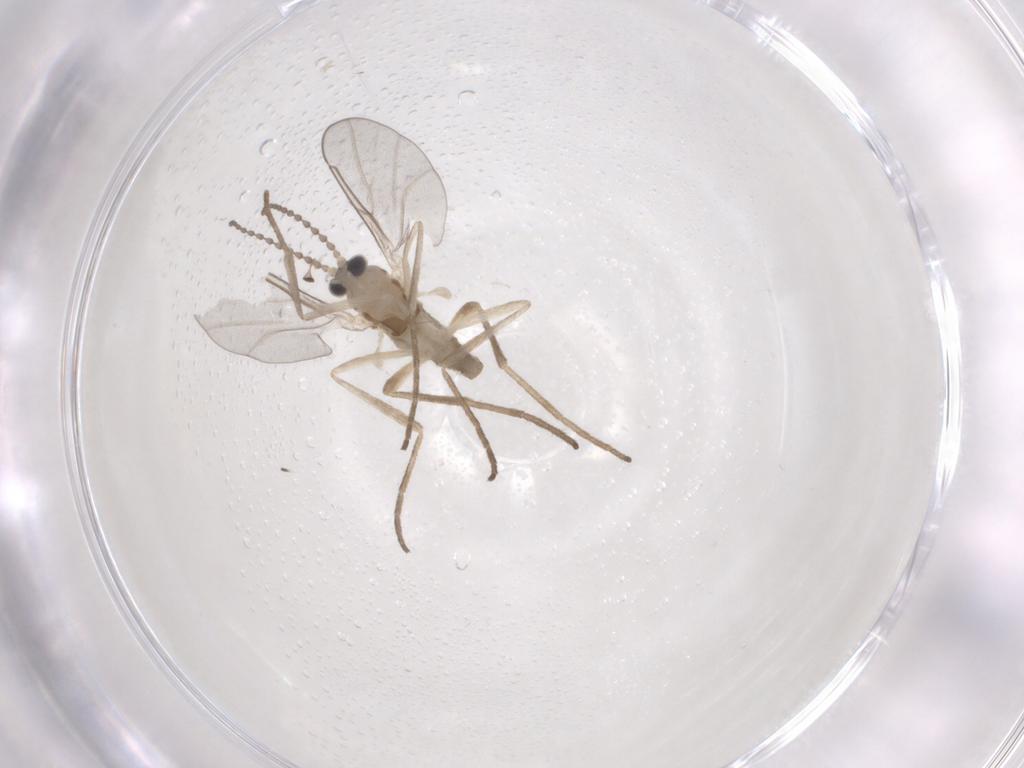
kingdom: Animalia
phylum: Arthropoda
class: Insecta
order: Diptera
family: Cecidomyiidae
